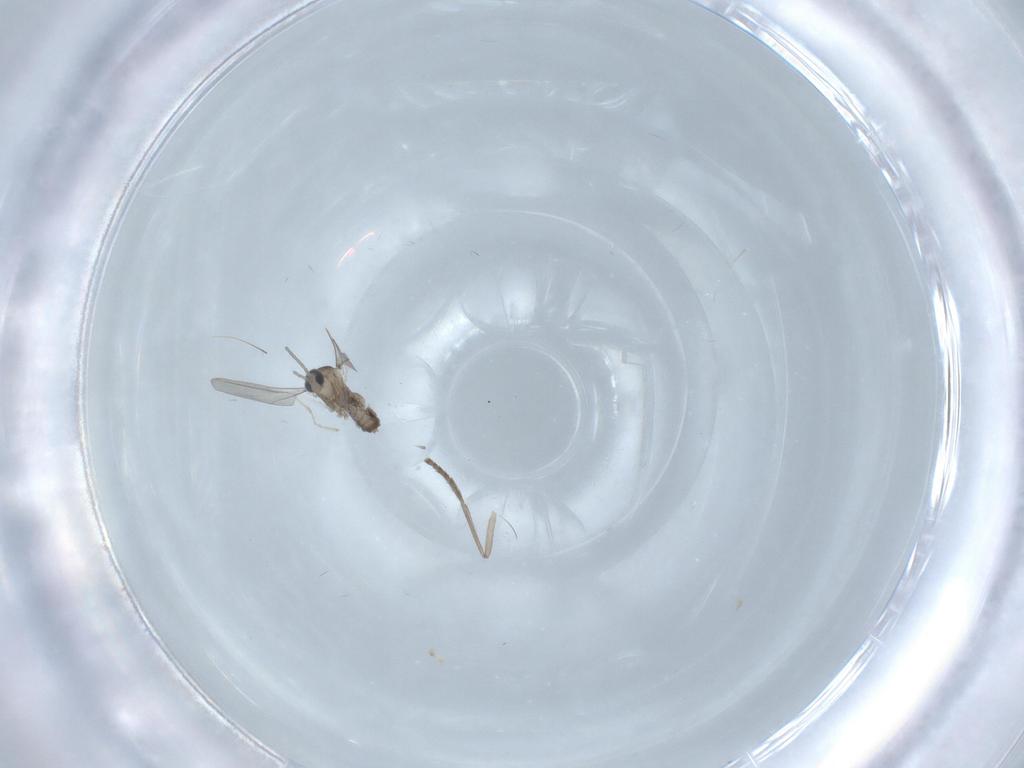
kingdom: Animalia
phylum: Arthropoda
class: Insecta
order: Diptera
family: Cecidomyiidae
